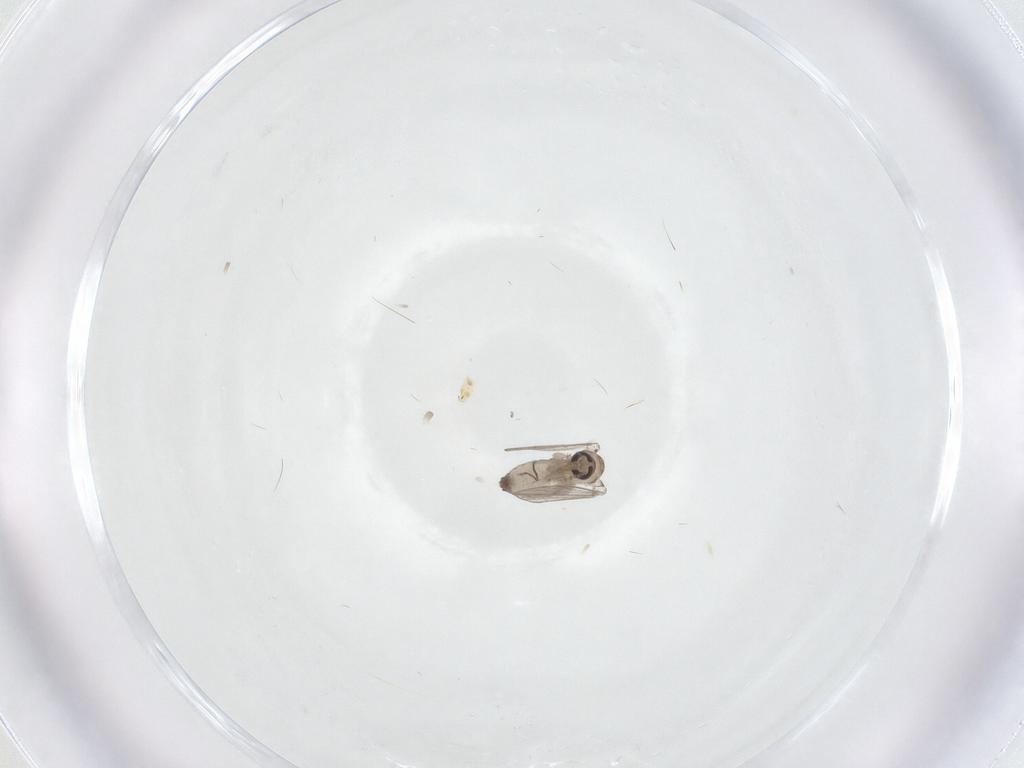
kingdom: Animalia
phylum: Arthropoda
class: Insecta
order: Diptera
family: Psychodidae
